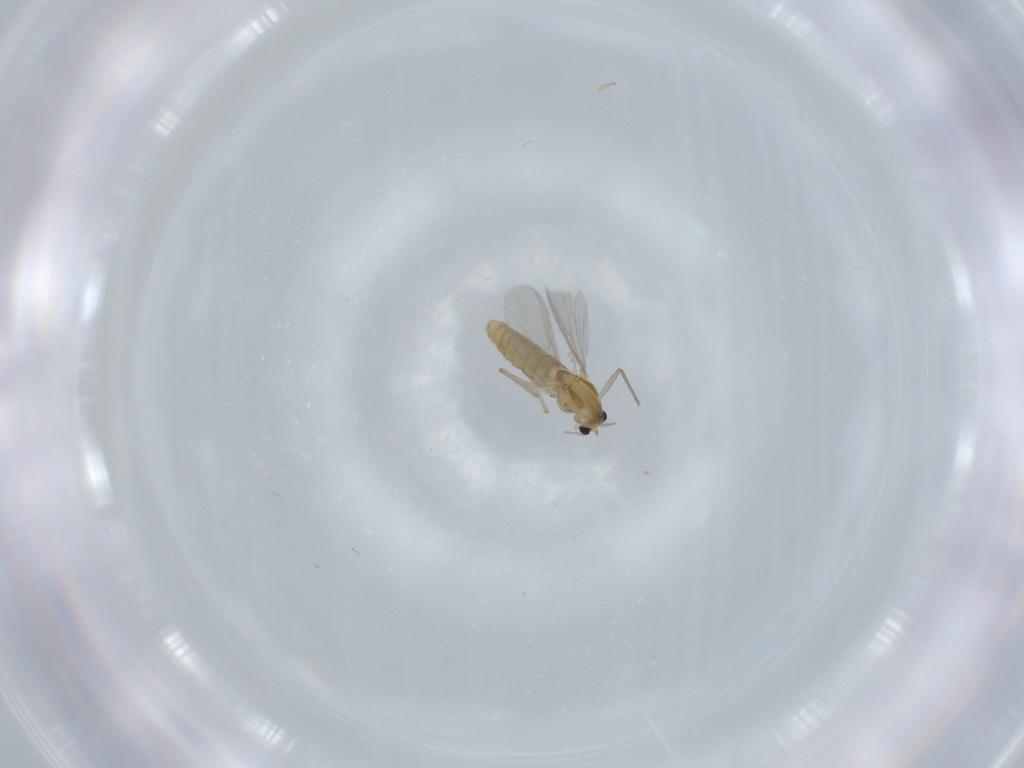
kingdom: Animalia
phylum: Arthropoda
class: Insecta
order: Diptera
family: Chironomidae
